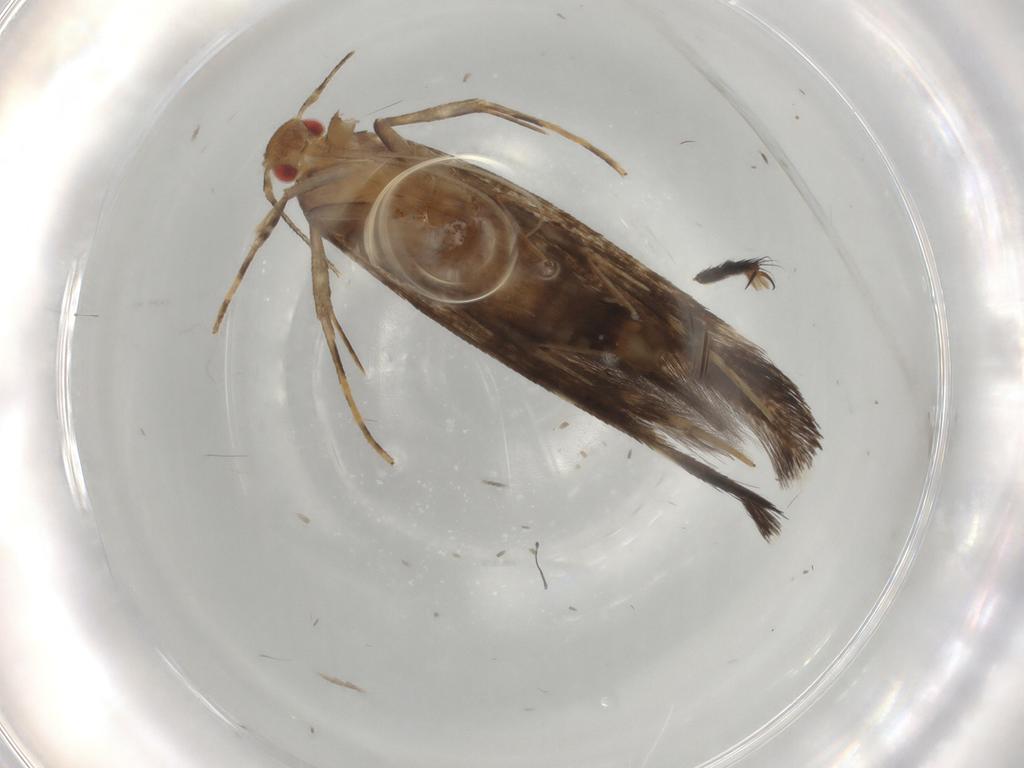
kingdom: Animalia
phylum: Arthropoda
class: Insecta
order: Lepidoptera
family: Cosmopterigidae
